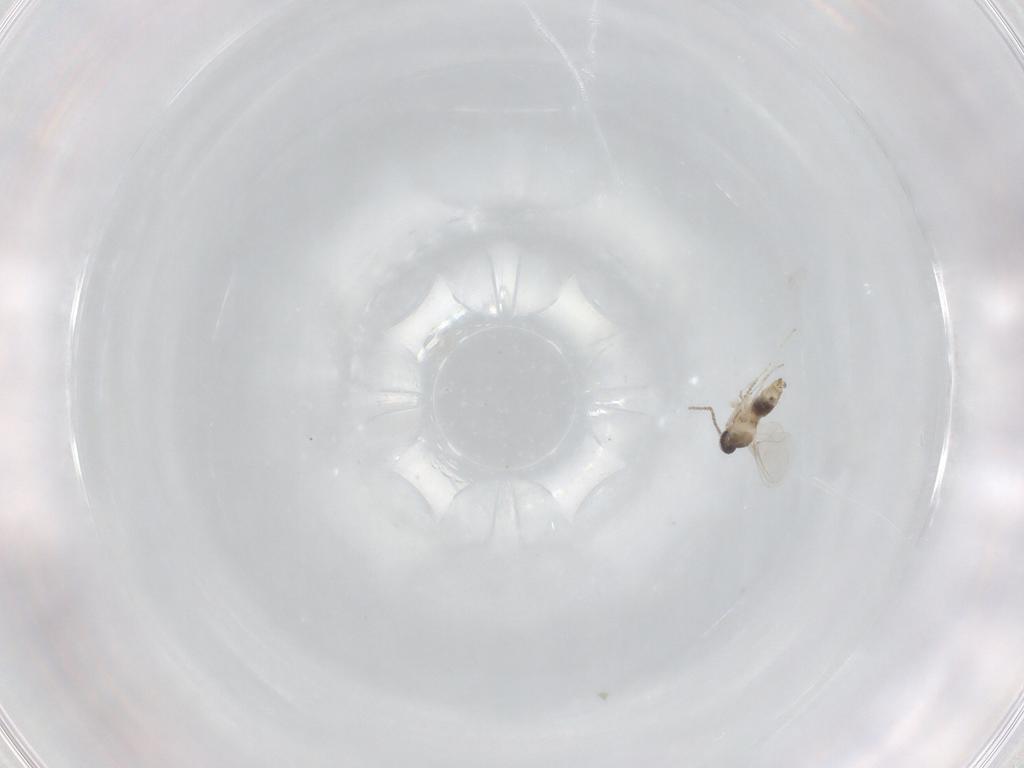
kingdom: Animalia
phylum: Arthropoda
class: Insecta
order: Diptera
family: Cecidomyiidae
